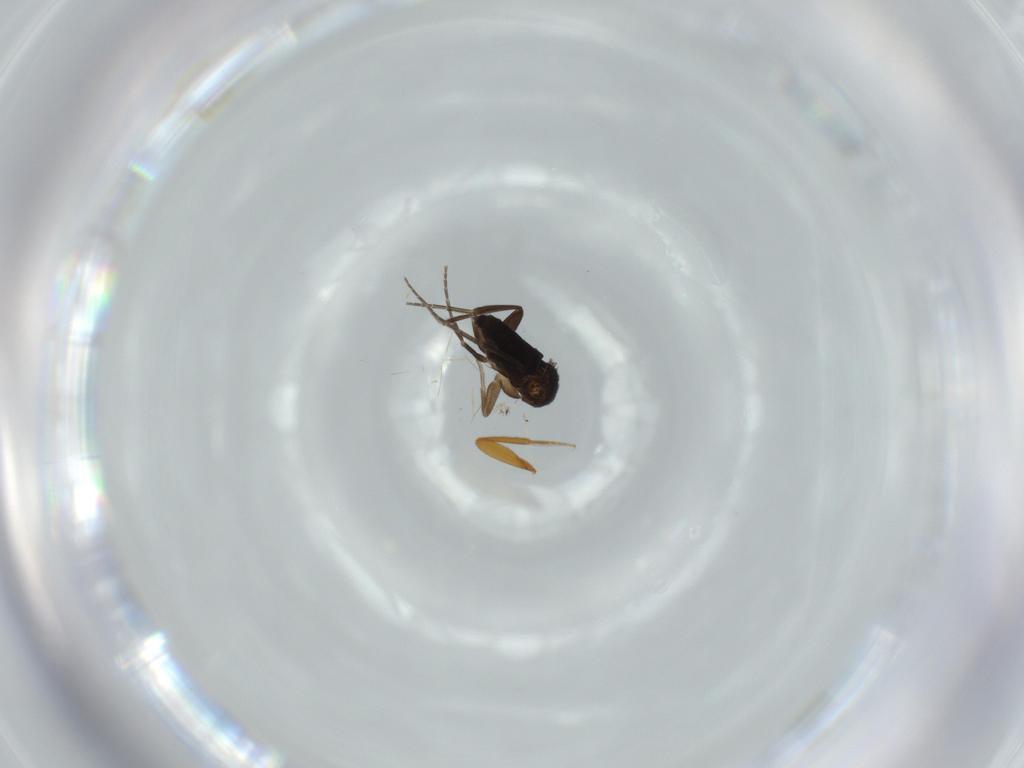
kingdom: Animalia
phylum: Arthropoda
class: Insecta
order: Diptera
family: Phoridae
